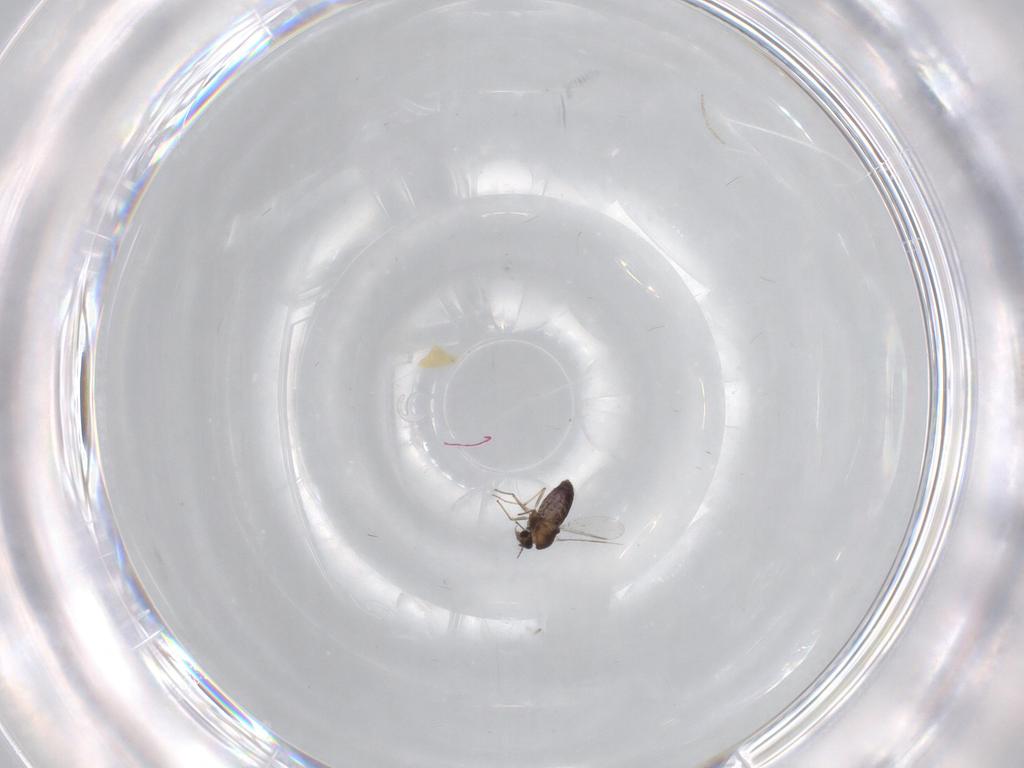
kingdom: Animalia
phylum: Arthropoda
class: Insecta
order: Diptera
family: Chironomidae
